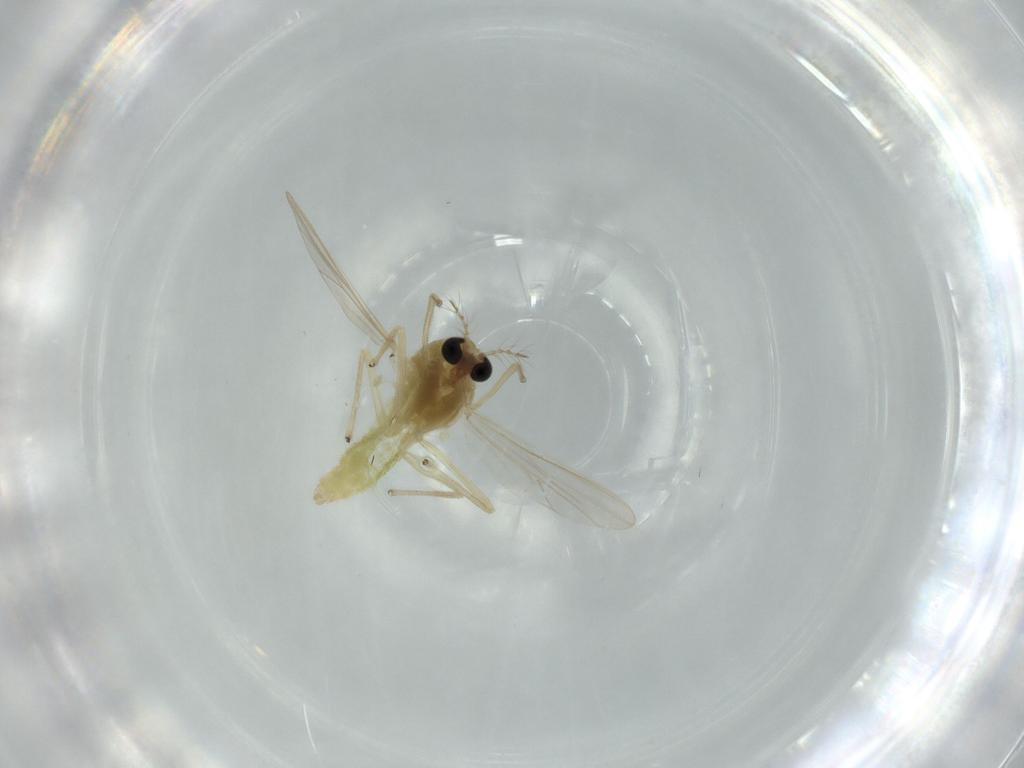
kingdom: Animalia
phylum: Arthropoda
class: Insecta
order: Diptera
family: Chironomidae
